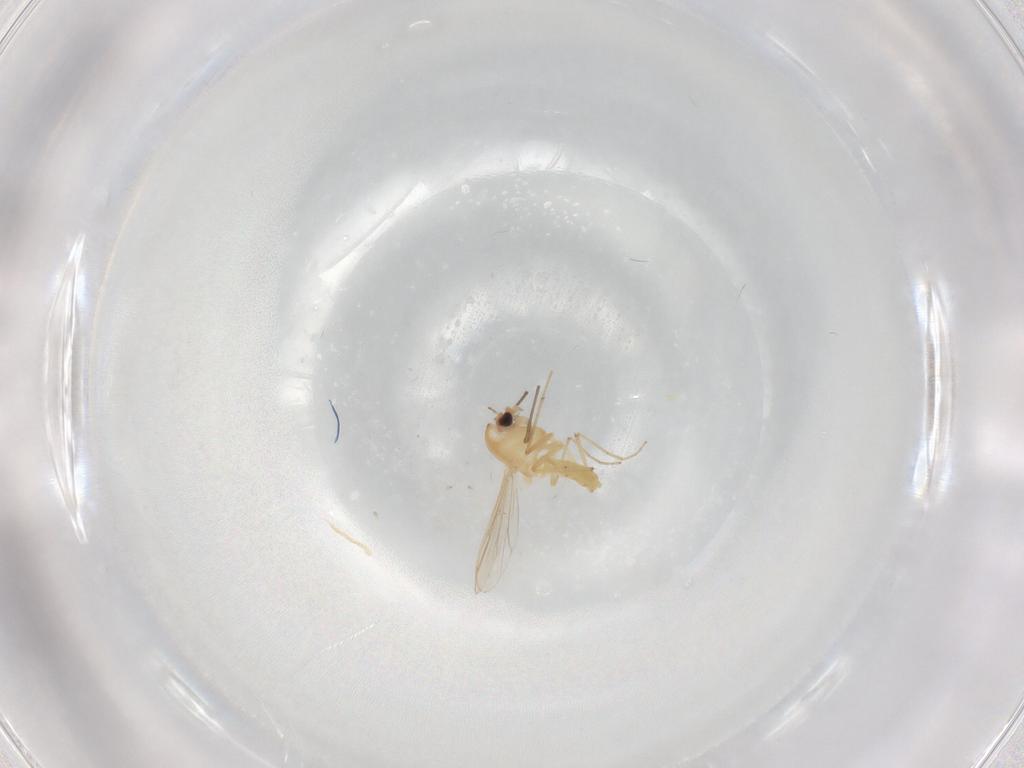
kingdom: Animalia
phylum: Arthropoda
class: Insecta
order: Diptera
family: Chironomidae
